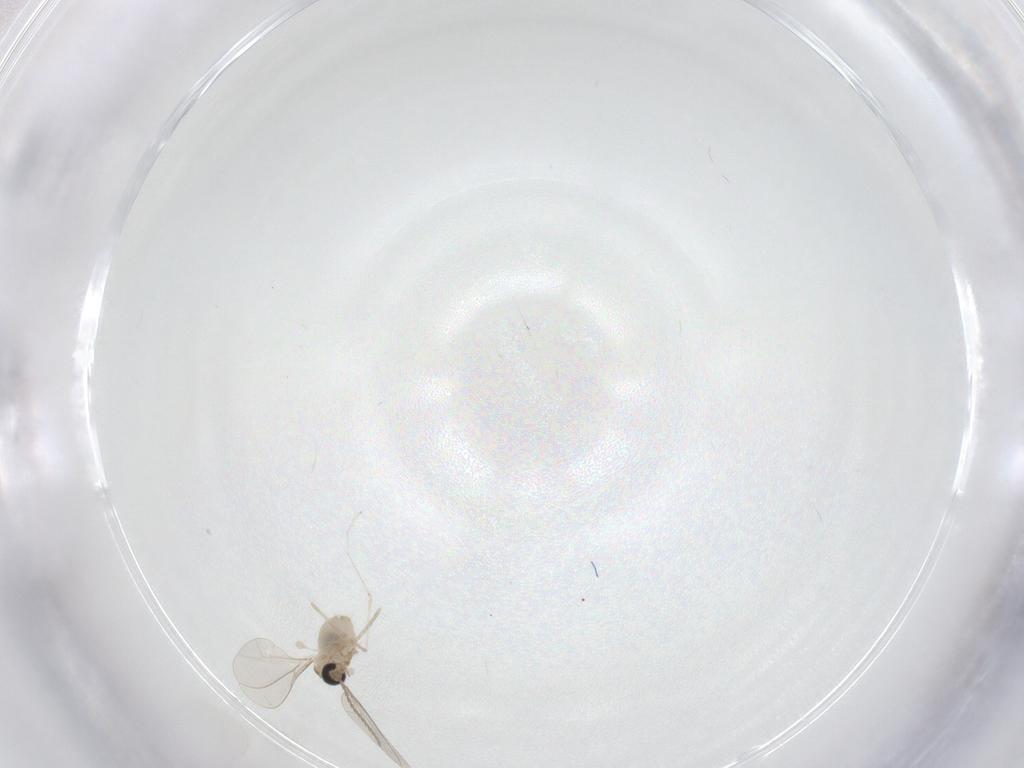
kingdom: Animalia
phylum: Arthropoda
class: Insecta
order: Diptera
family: Cecidomyiidae
